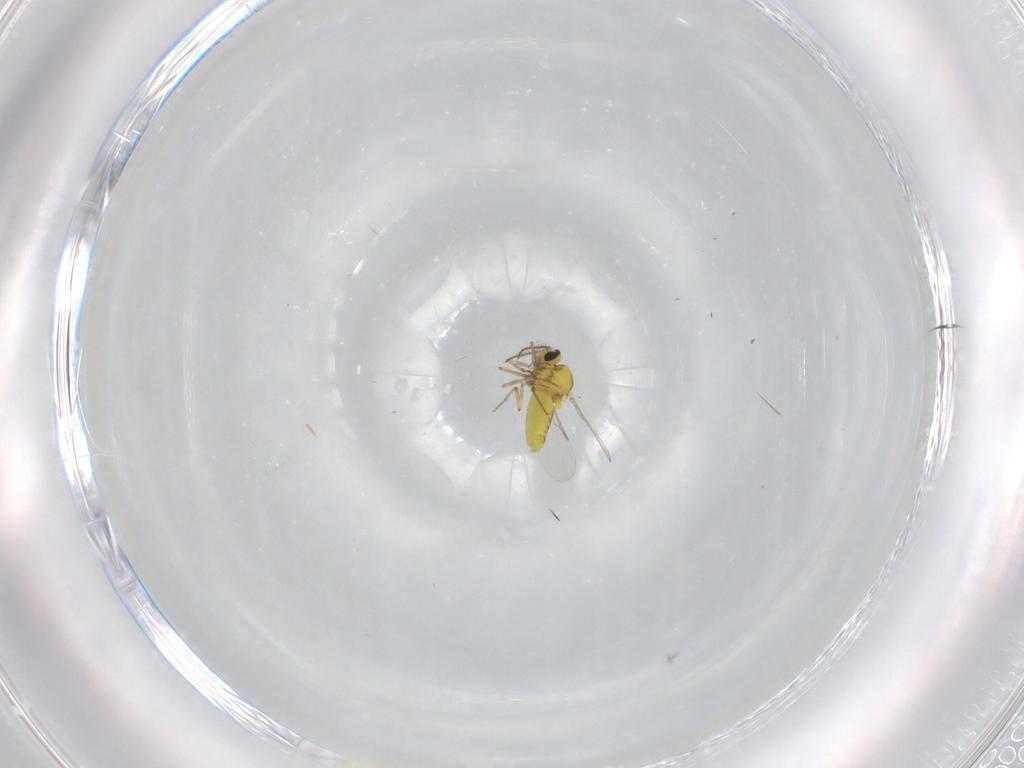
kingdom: Animalia
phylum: Arthropoda
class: Insecta
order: Diptera
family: Ceratopogonidae
